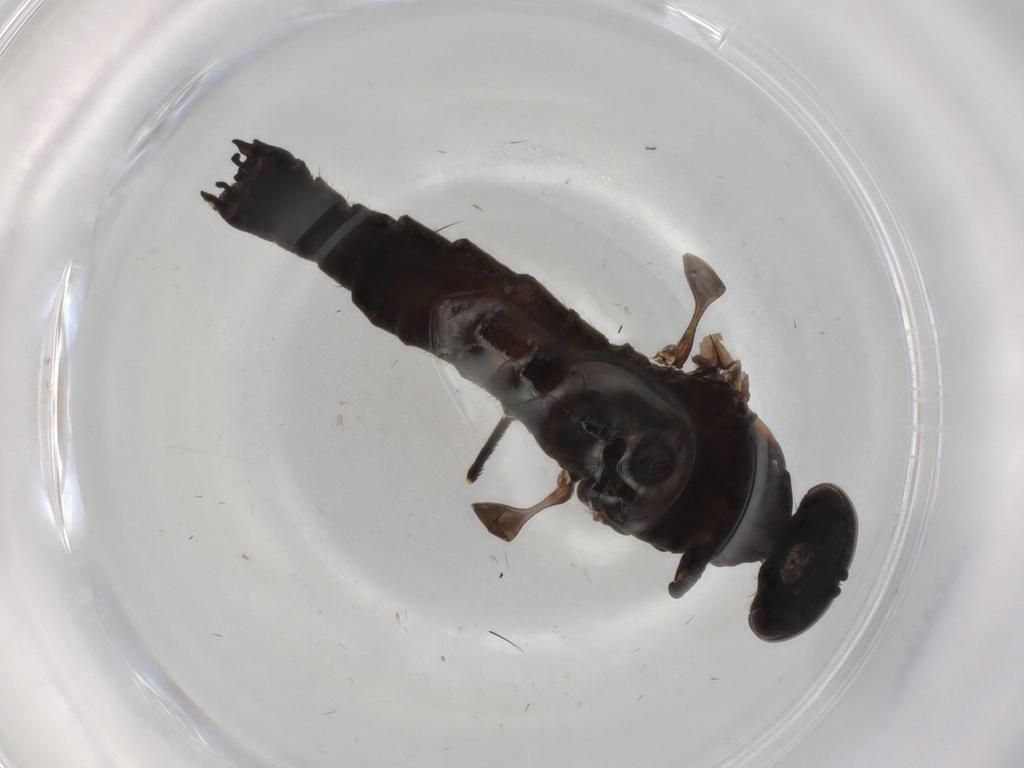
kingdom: Animalia
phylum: Arthropoda
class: Insecta
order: Diptera
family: Cecidomyiidae
